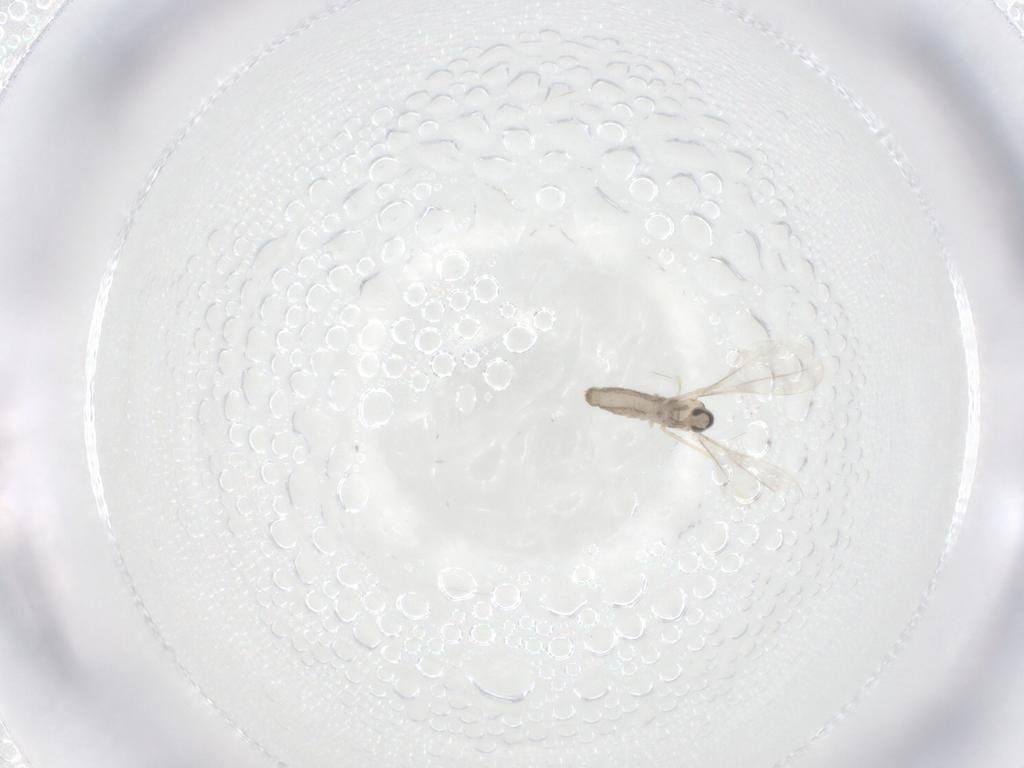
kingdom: Animalia
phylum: Arthropoda
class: Insecta
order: Diptera
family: Cecidomyiidae
